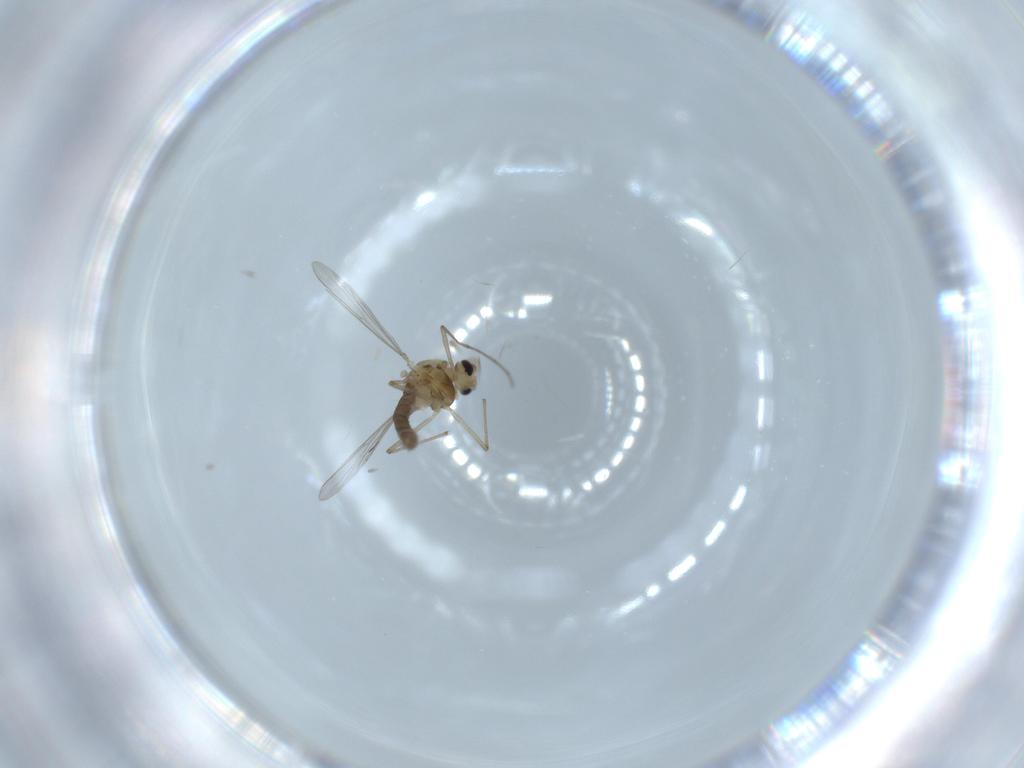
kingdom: Animalia
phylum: Arthropoda
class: Insecta
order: Diptera
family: Chironomidae
